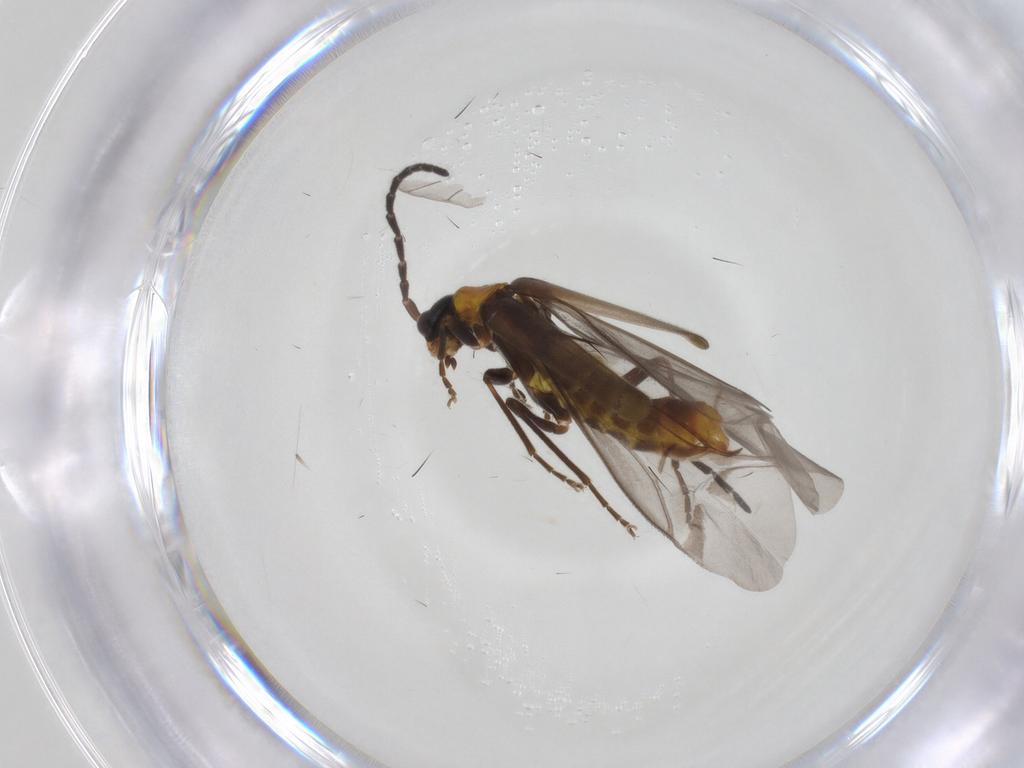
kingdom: Animalia
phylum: Arthropoda
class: Insecta
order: Coleoptera
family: Cantharidae
